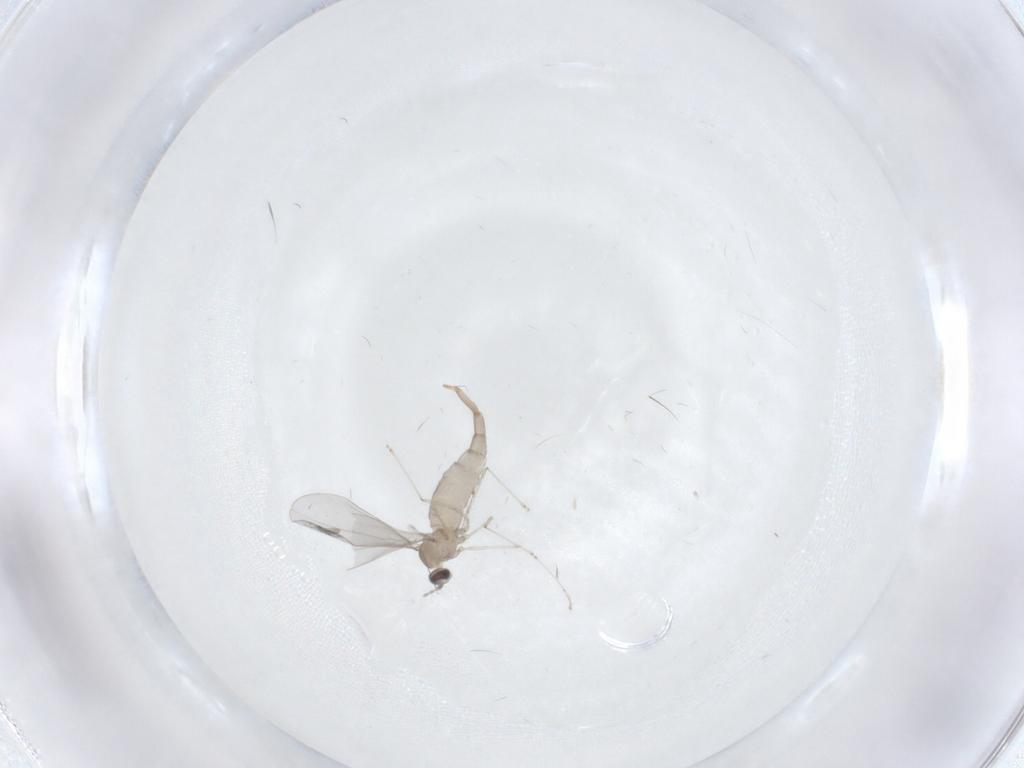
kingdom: Animalia
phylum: Arthropoda
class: Insecta
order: Diptera
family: Cecidomyiidae
